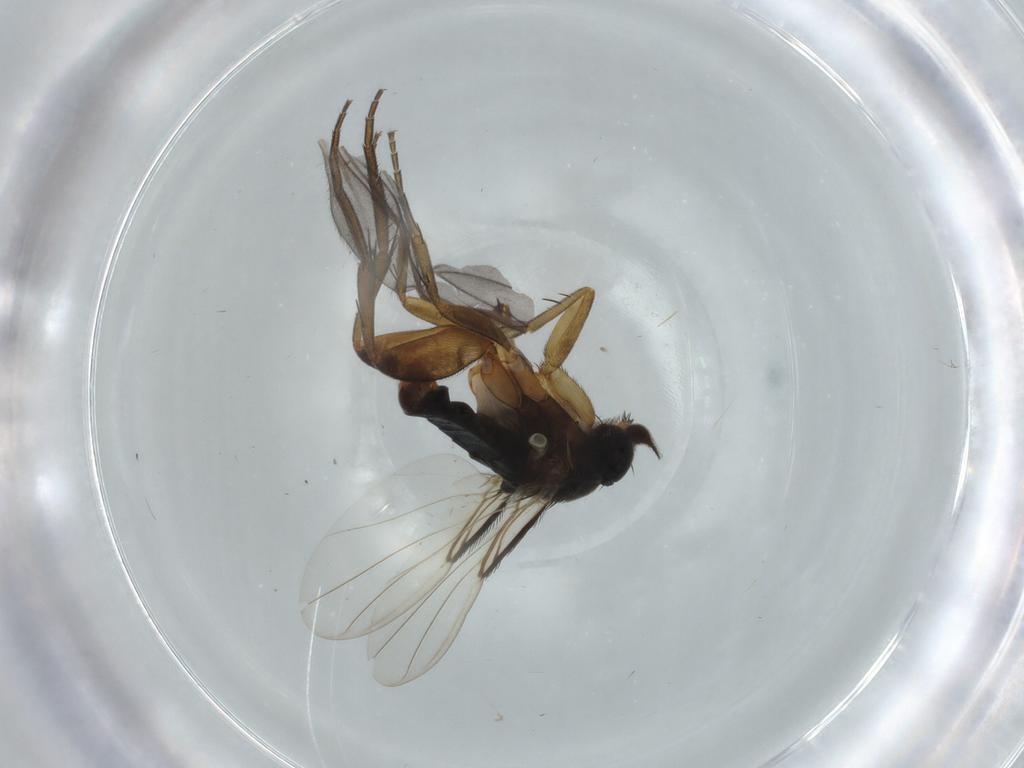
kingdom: Animalia
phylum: Arthropoda
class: Insecta
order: Diptera
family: Phoridae
